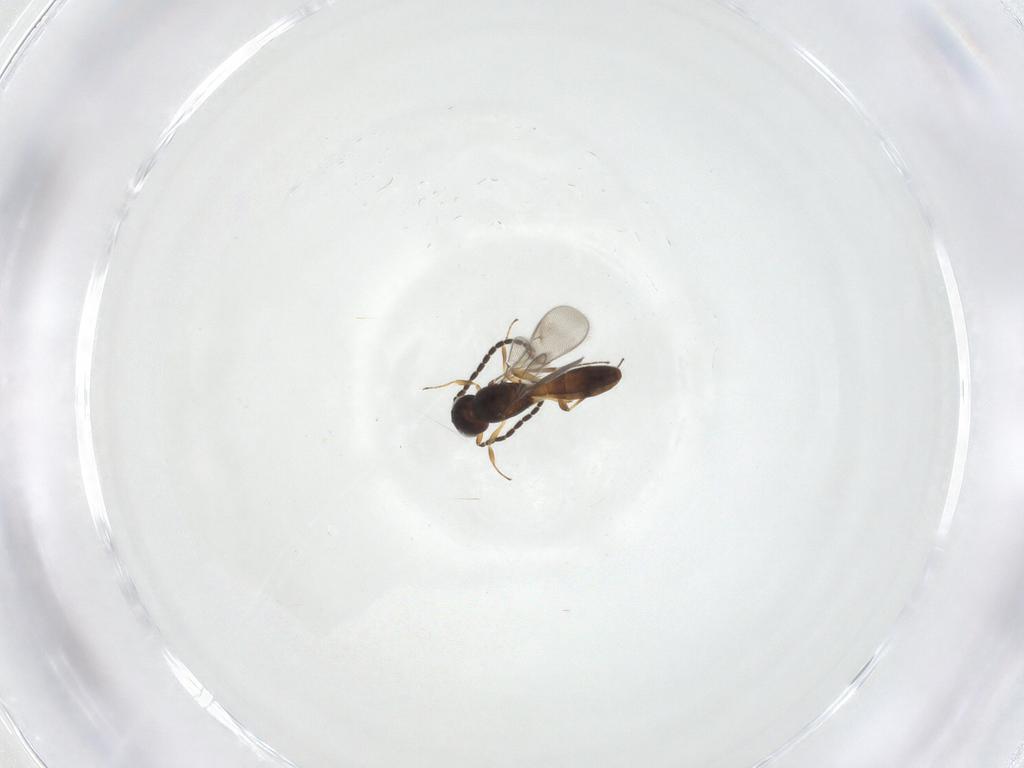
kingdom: Animalia
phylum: Arthropoda
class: Insecta
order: Hymenoptera
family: Scelionidae
